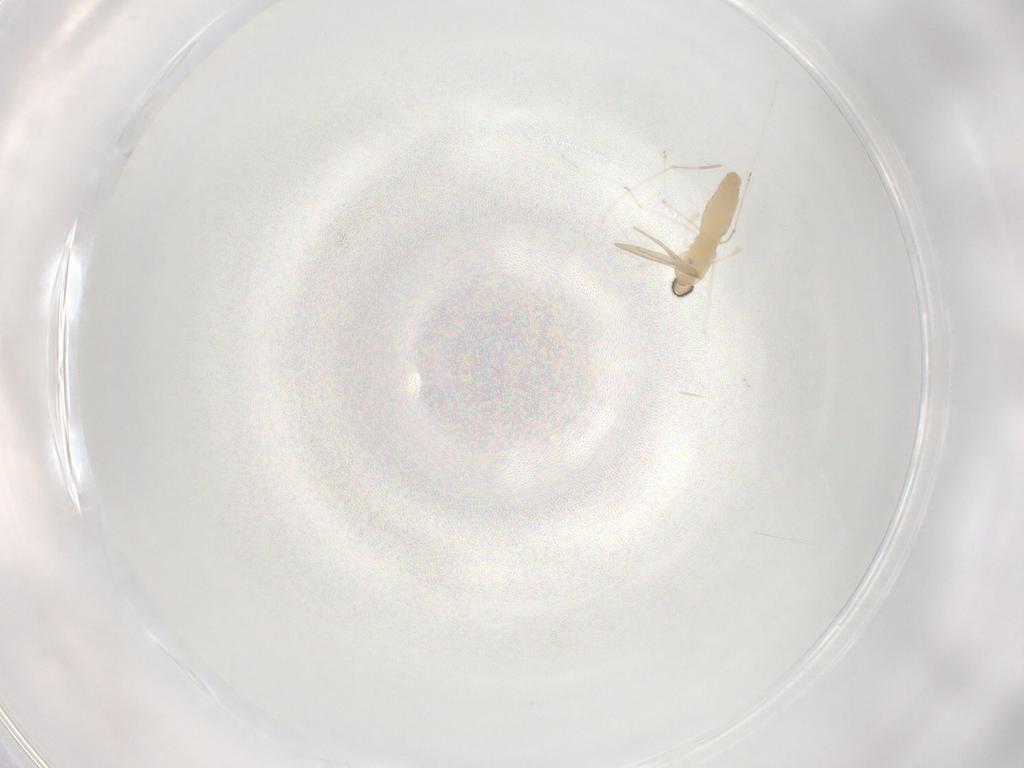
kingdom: Animalia
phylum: Arthropoda
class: Insecta
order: Diptera
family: Cecidomyiidae
